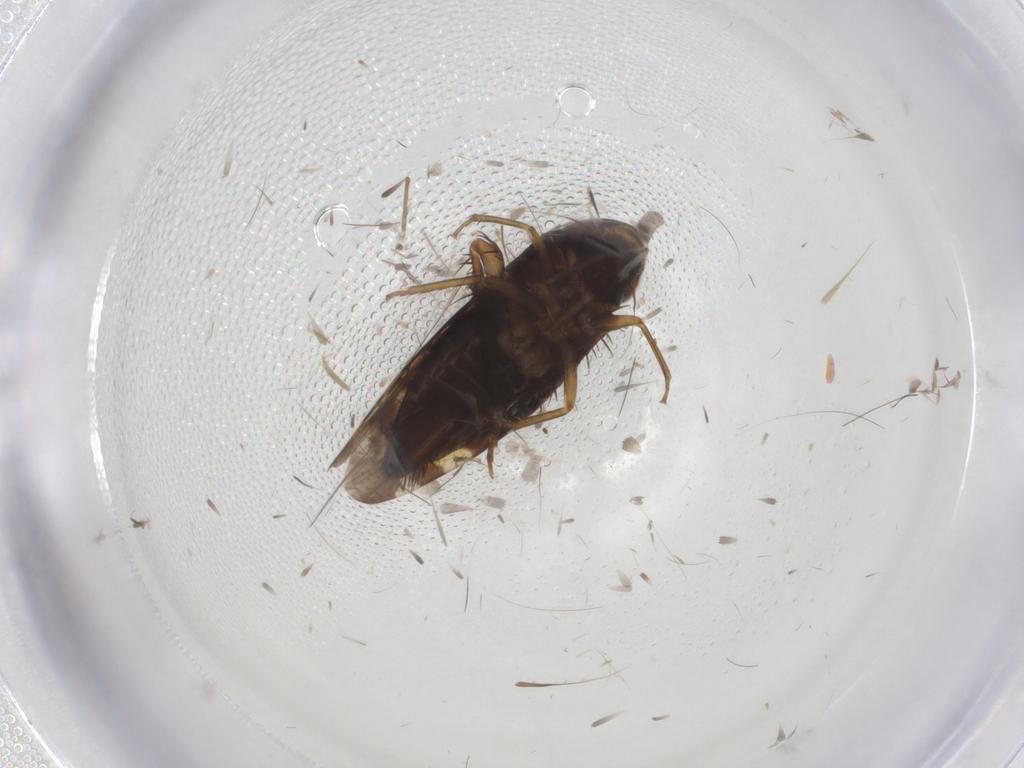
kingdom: Animalia
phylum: Arthropoda
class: Insecta
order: Hemiptera
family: Cicadellidae
